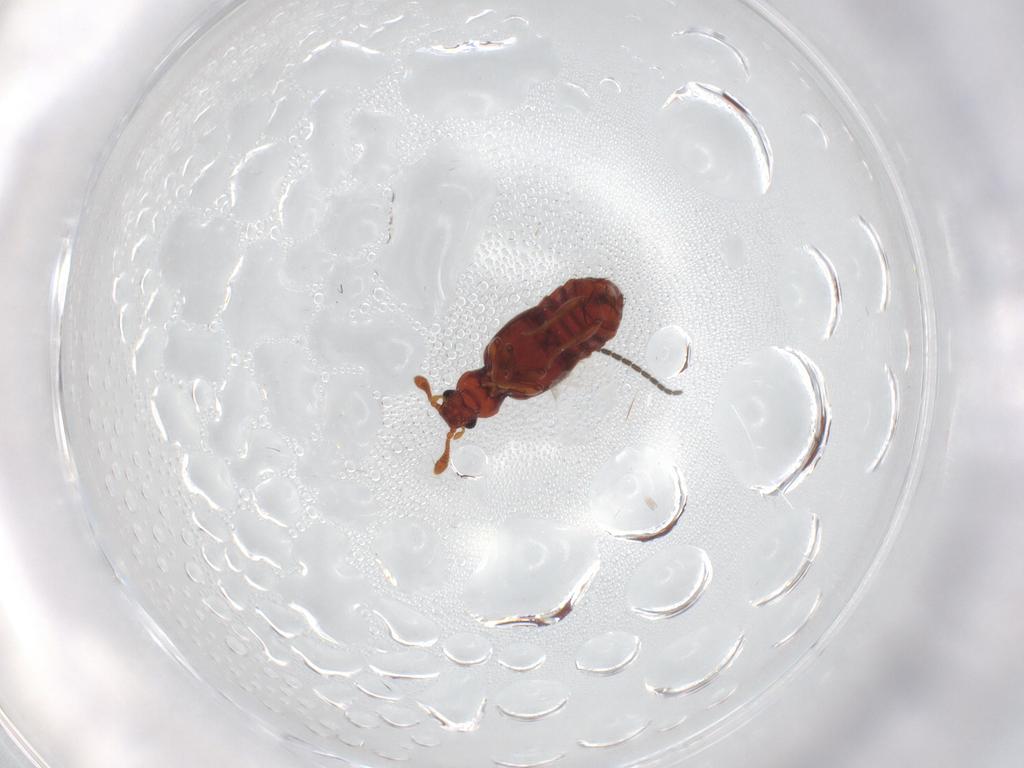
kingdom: Animalia
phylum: Arthropoda
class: Insecta
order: Coleoptera
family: Staphylinidae
